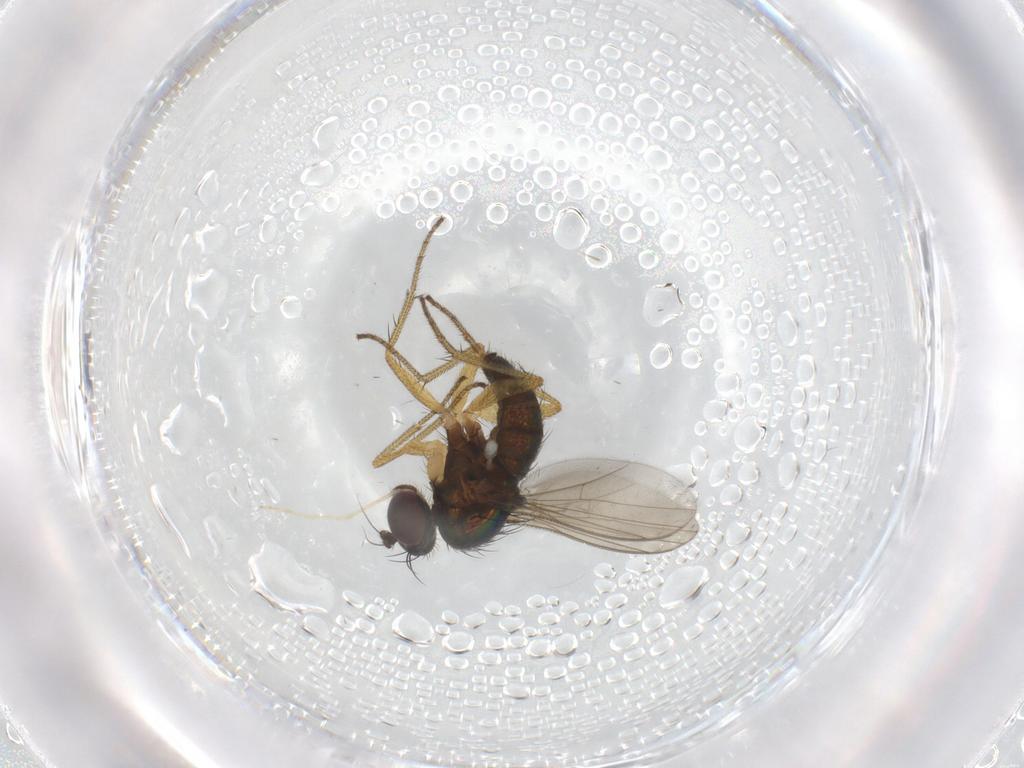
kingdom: Animalia
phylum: Arthropoda
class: Insecta
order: Diptera
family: Dolichopodidae
